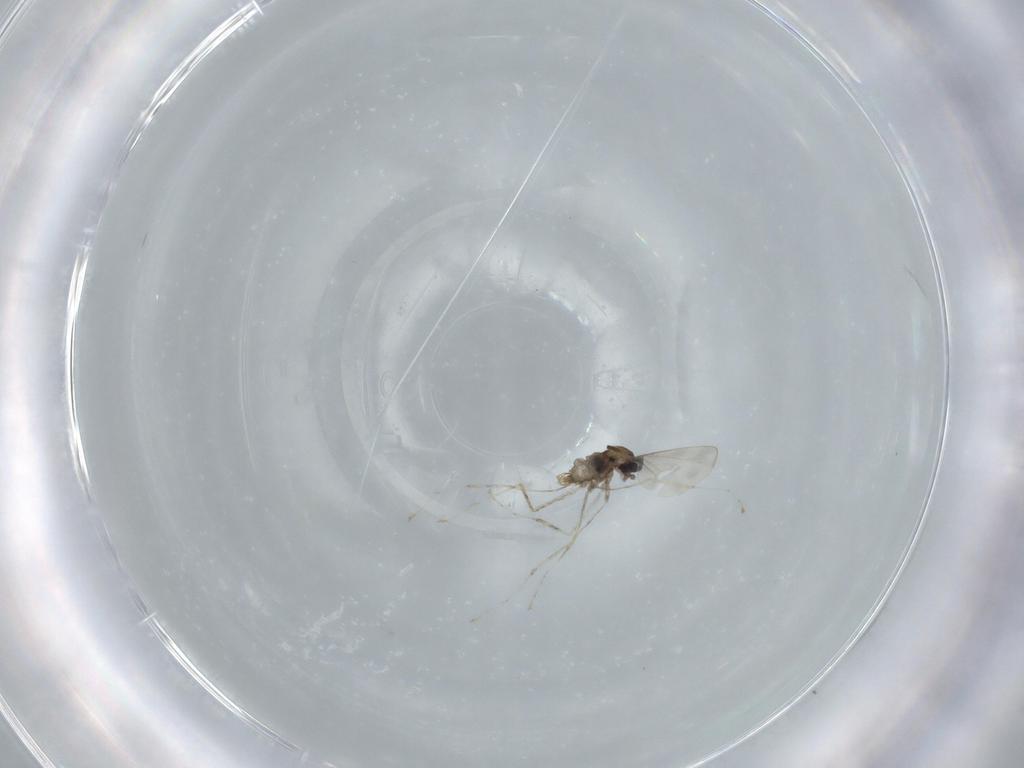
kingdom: Animalia
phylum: Arthropoda
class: Insecta
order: Diptera
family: Cecidomyiidae
